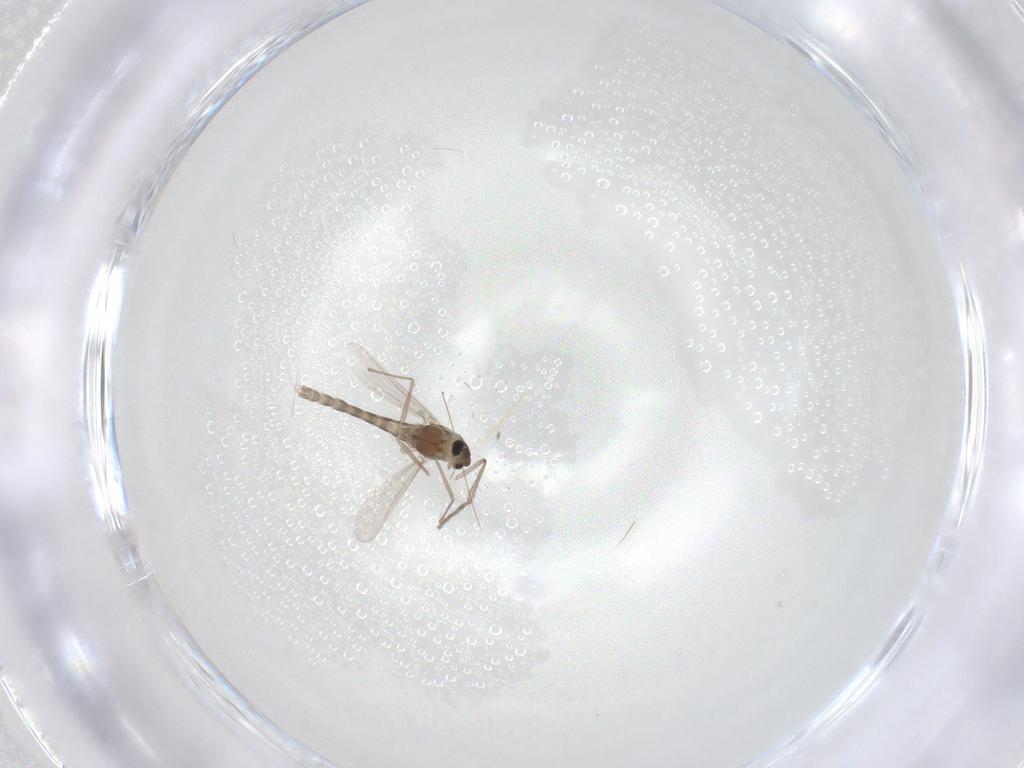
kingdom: Animalia
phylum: Arthropoda
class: Insecta
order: Diptera
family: Chironomidae
